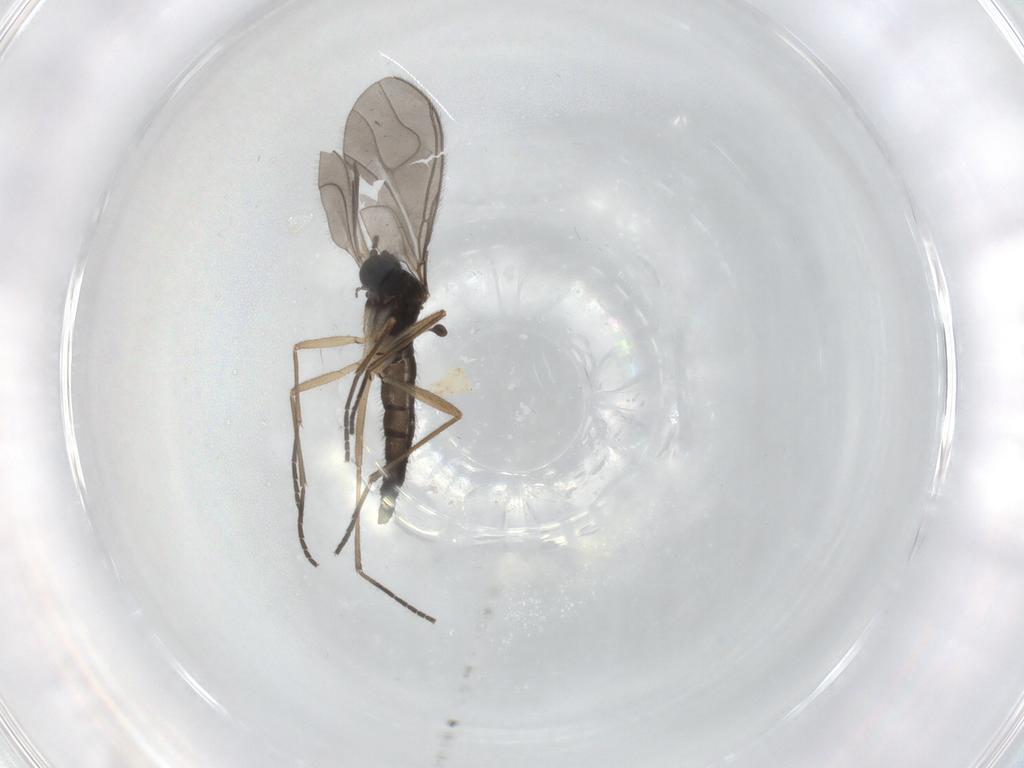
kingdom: Animalia
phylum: Arthropoda
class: Insecta
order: Diptera
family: Sciaridae
